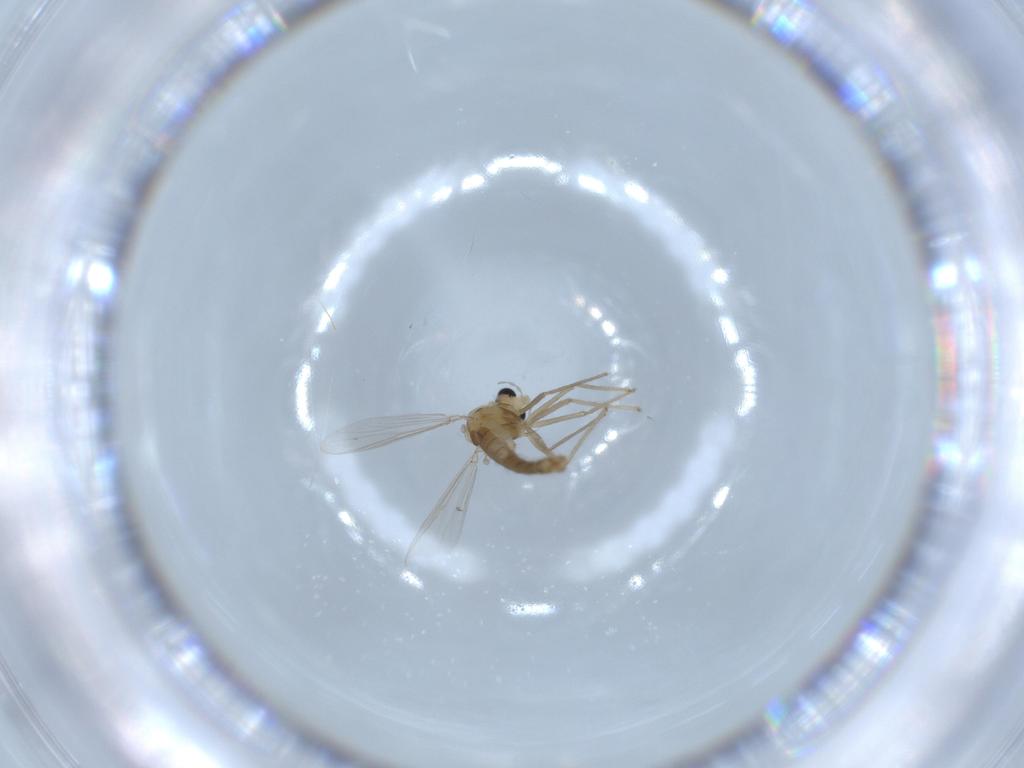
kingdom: Animalia
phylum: Arthropoda
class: Insecta
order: Diptera
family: Chironomidae
